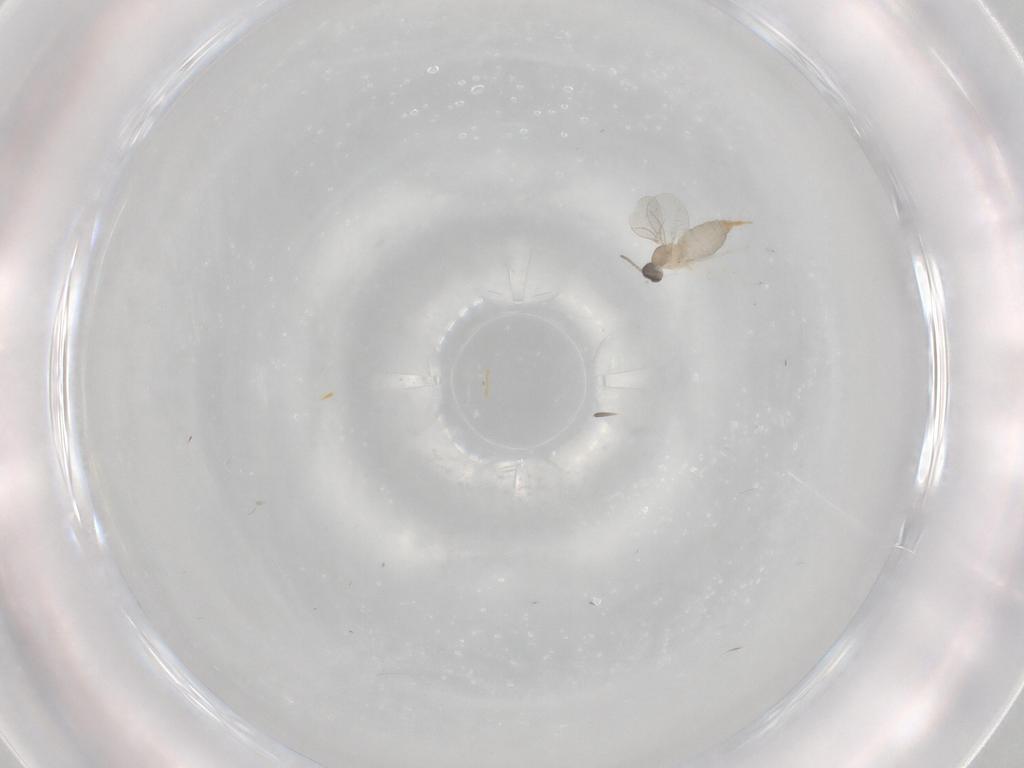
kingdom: Animalia
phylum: Arthropoda
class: Insecta
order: Diptera
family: Cecidomyiidae
